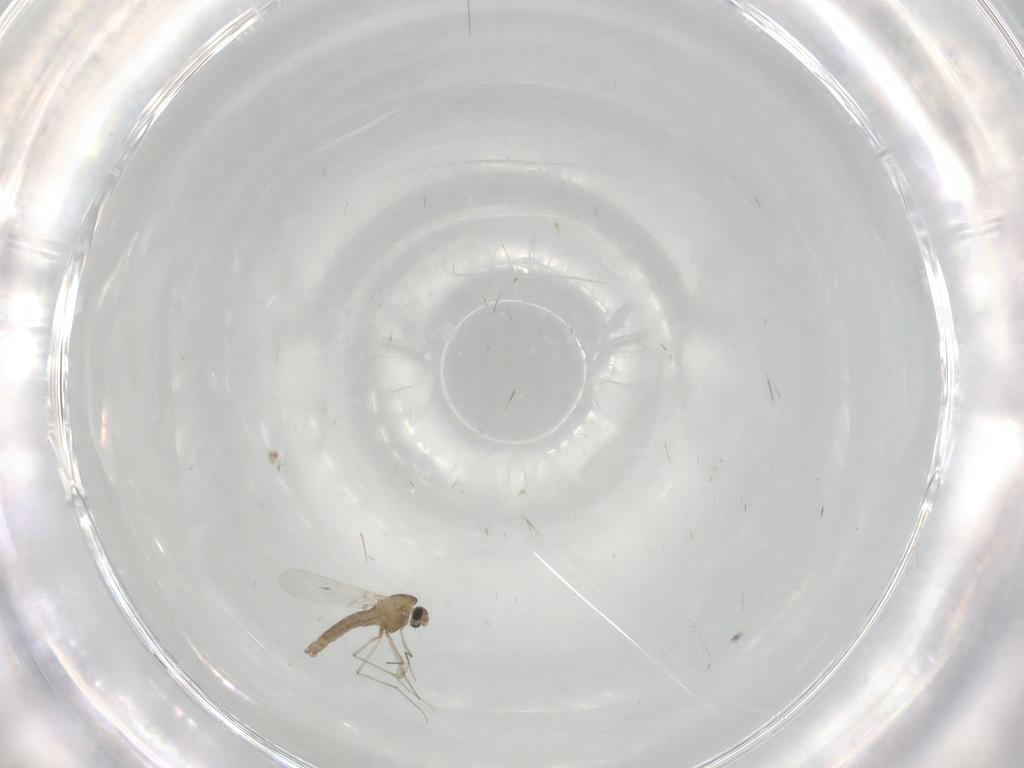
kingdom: Animalia
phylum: Arthropoda
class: Insecta
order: Diptera
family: Chironomidae
